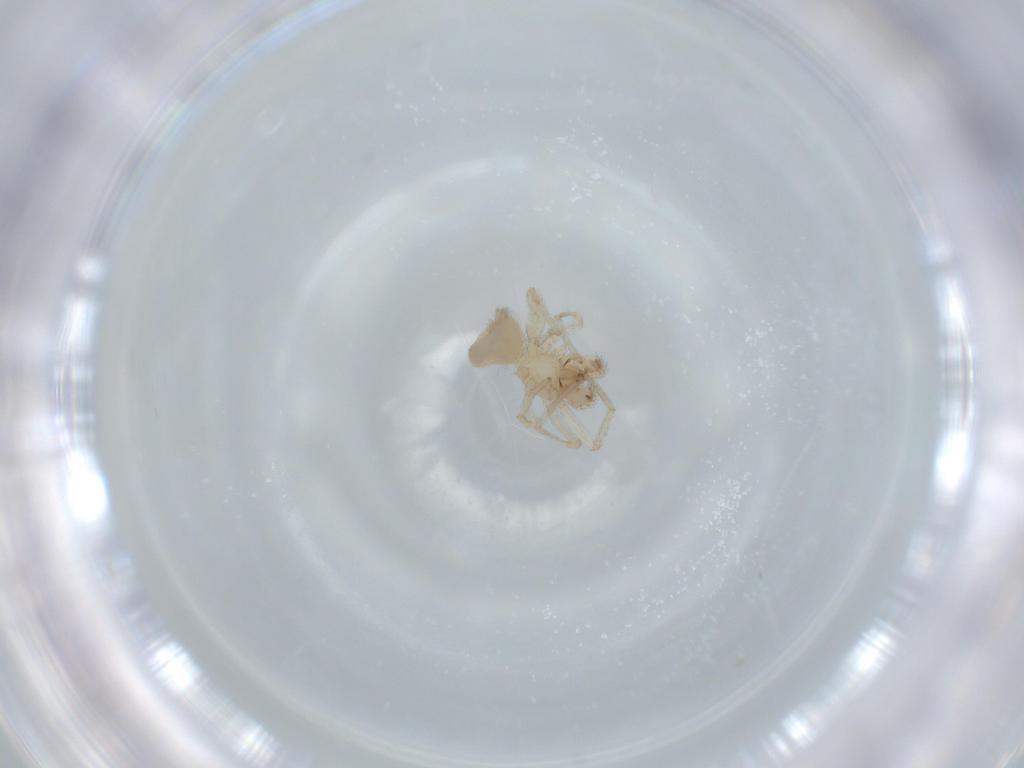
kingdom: Animalia
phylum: Arthropoda
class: Arachnida
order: Araneae
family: Oonopidae
